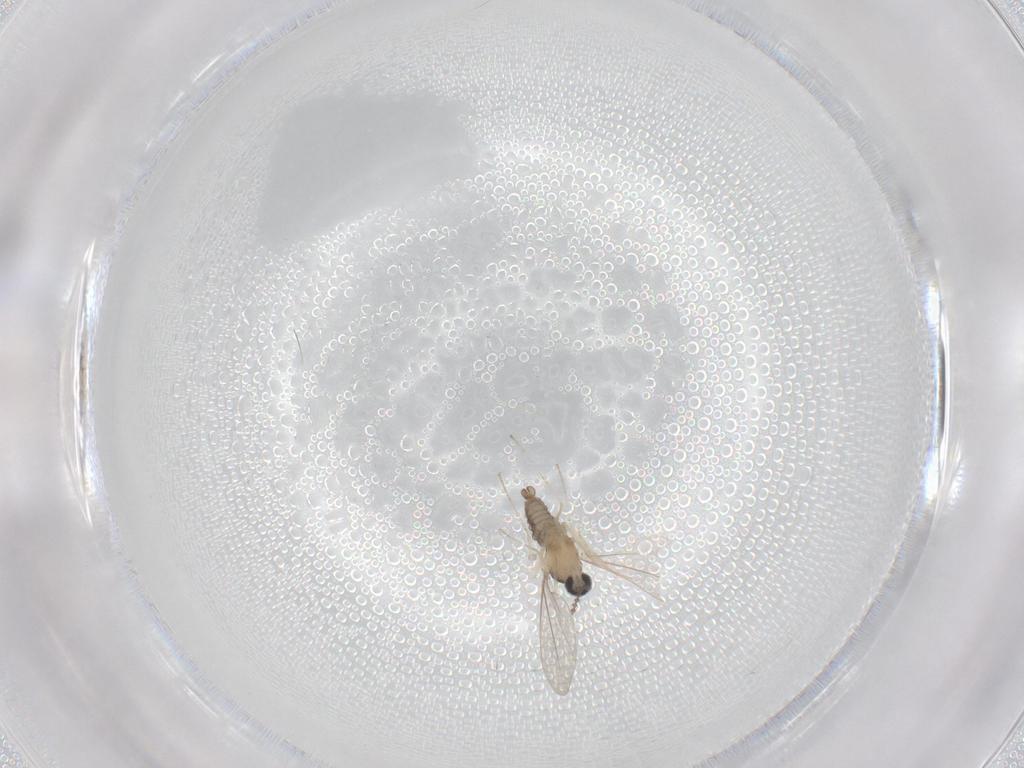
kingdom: Animalia
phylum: Arthropoda
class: Insecta
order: Diptera
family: Cecidomyiidae
